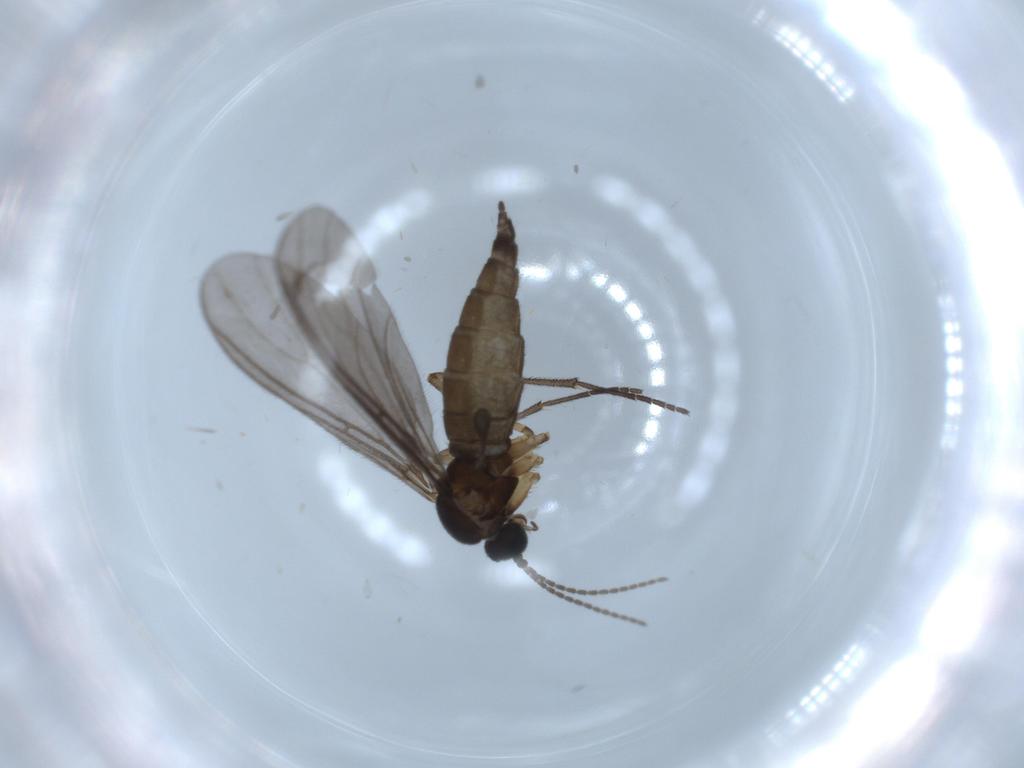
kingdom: Animalia
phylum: Arthropoda
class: Insecta
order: Diptera
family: Sciaridae
